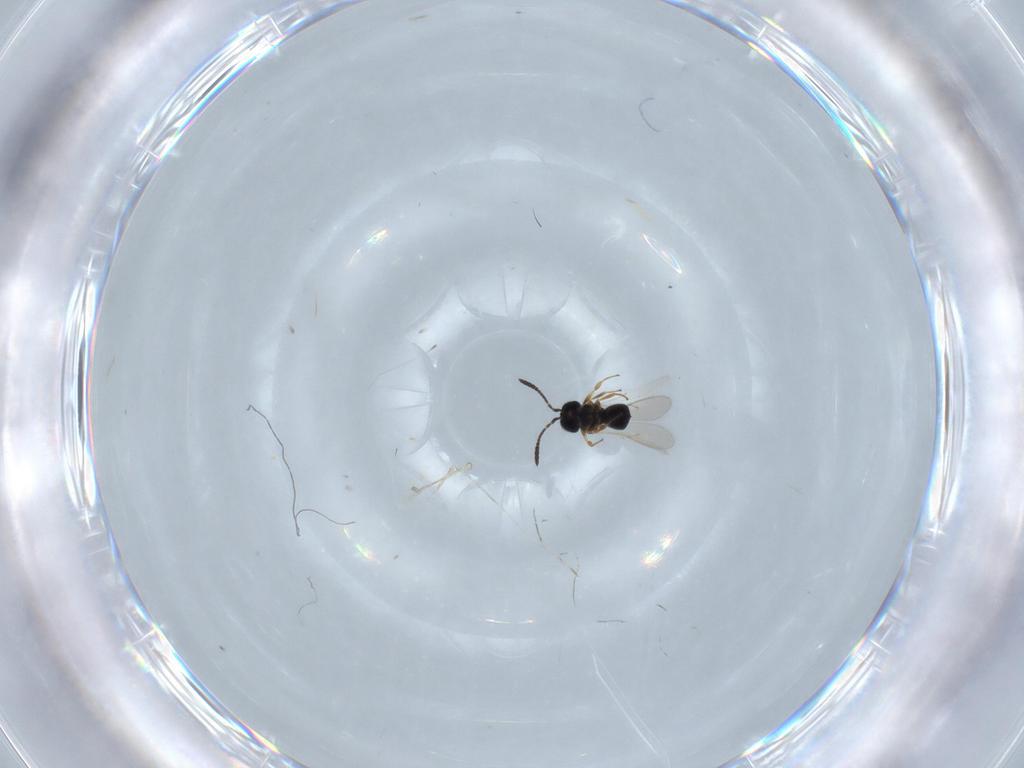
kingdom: Animalia
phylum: Arthropoda
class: Insecta
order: Hymenoptera
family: Scelionidae
